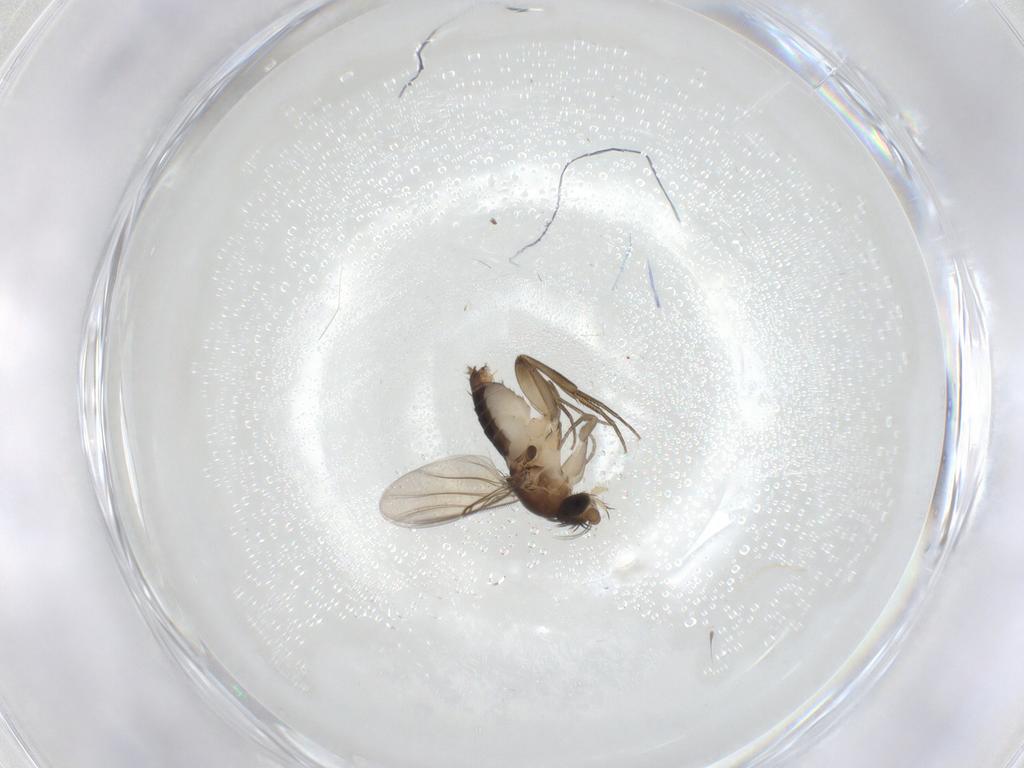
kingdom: Animalia
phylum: Arthropoda
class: Insecta
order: Diptera
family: Phoridae
